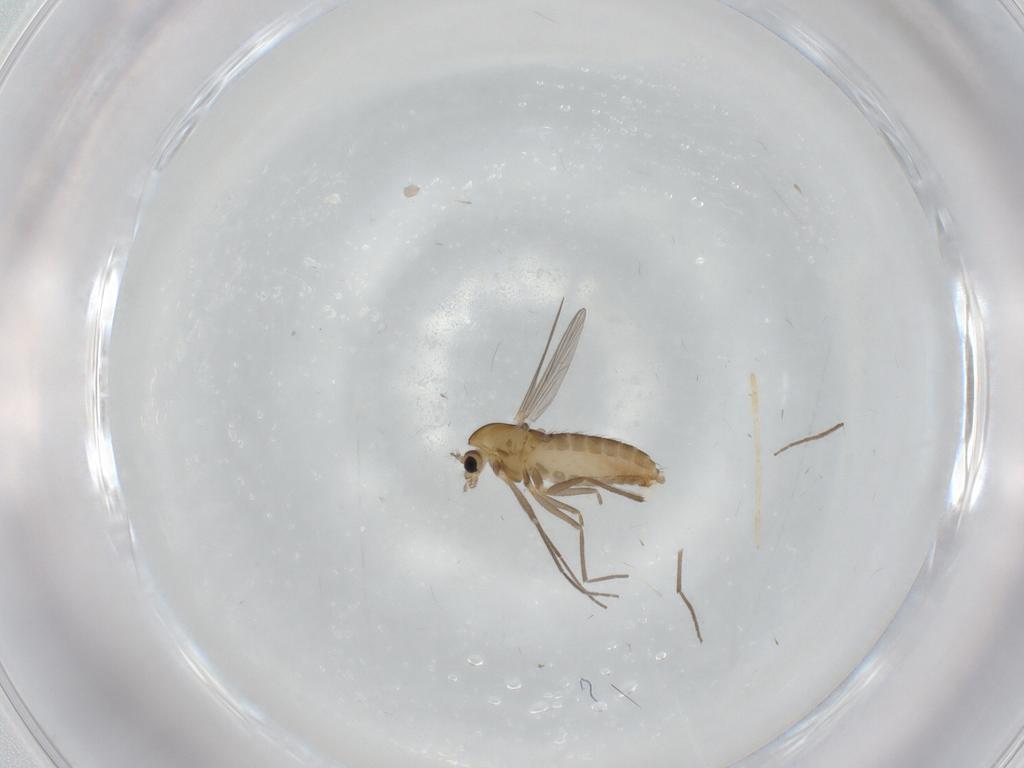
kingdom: Animalia
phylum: Arthropoda
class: Insecta
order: Diptera
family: Chironomidae
